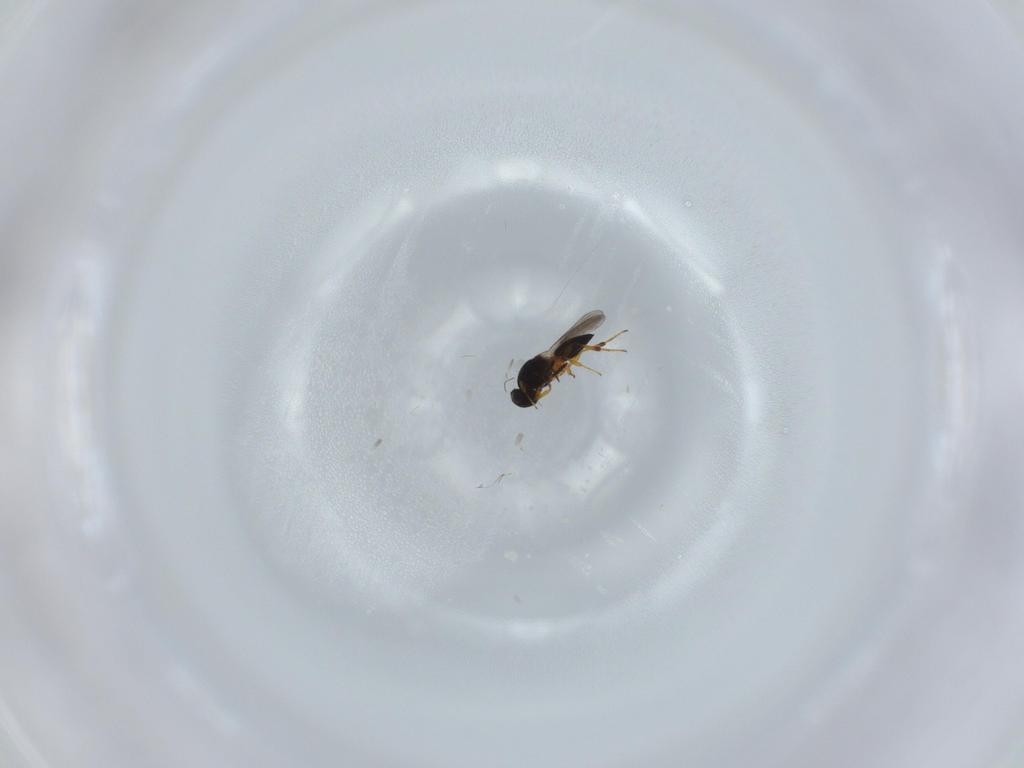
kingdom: Animalia
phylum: Arthropoda
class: Insecta
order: Hymenoptera
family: Platygastridae
